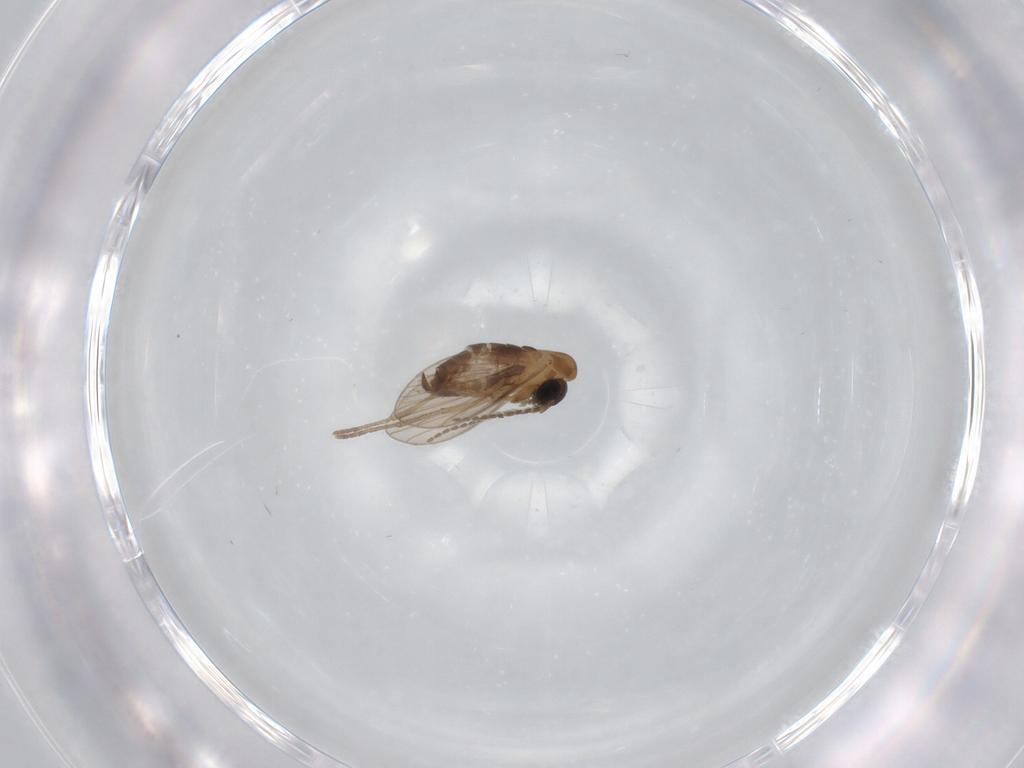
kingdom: Animalia
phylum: Arthropoda
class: Insecta
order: Diptera
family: Psychodidae
